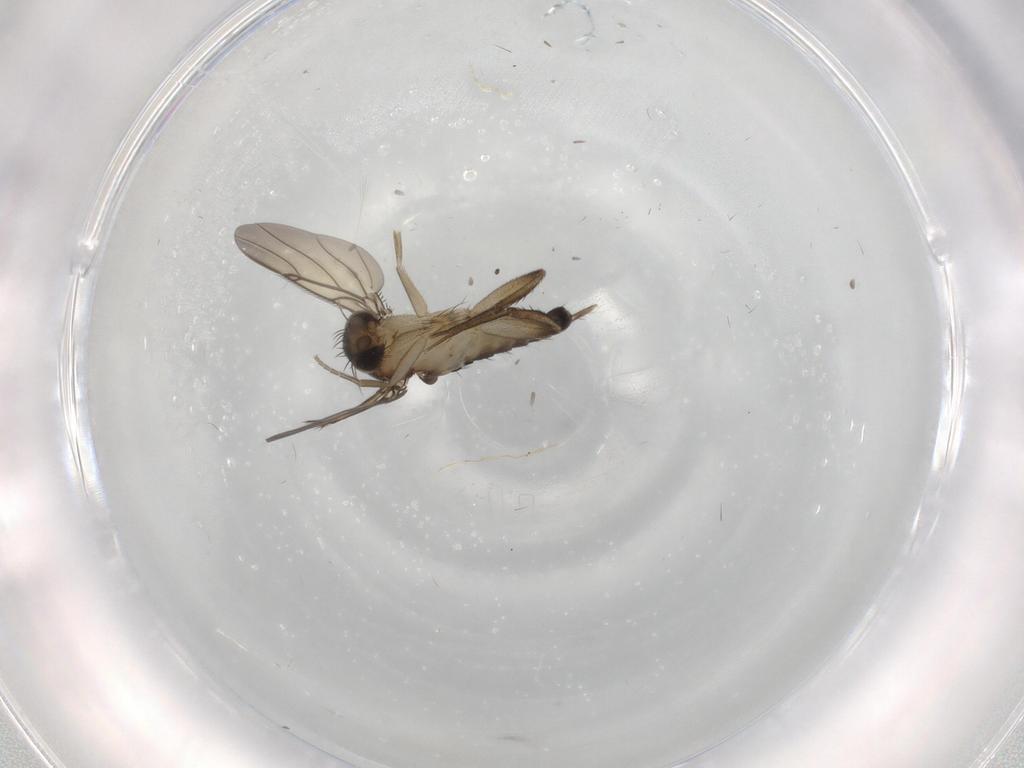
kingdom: Animalia
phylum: Arthropoda
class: Insecta
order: Diptera
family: Phoridae
